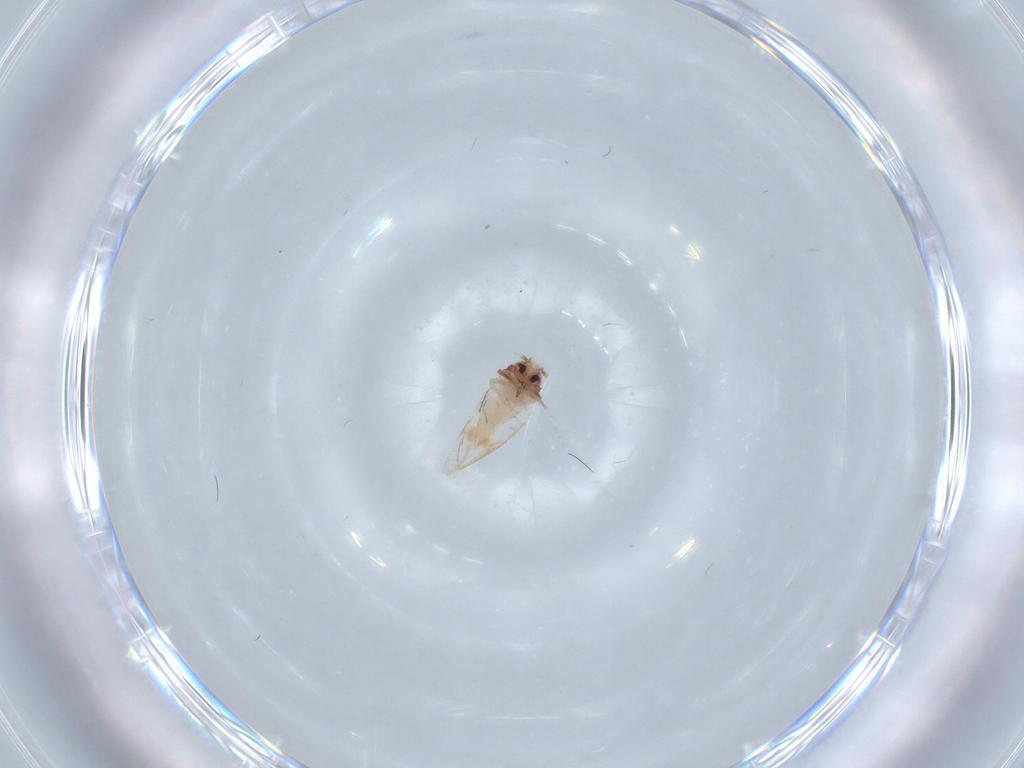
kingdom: Animalia
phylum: Arthropoda
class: Insecta
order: Hemiptera
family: Aleyrodidae
